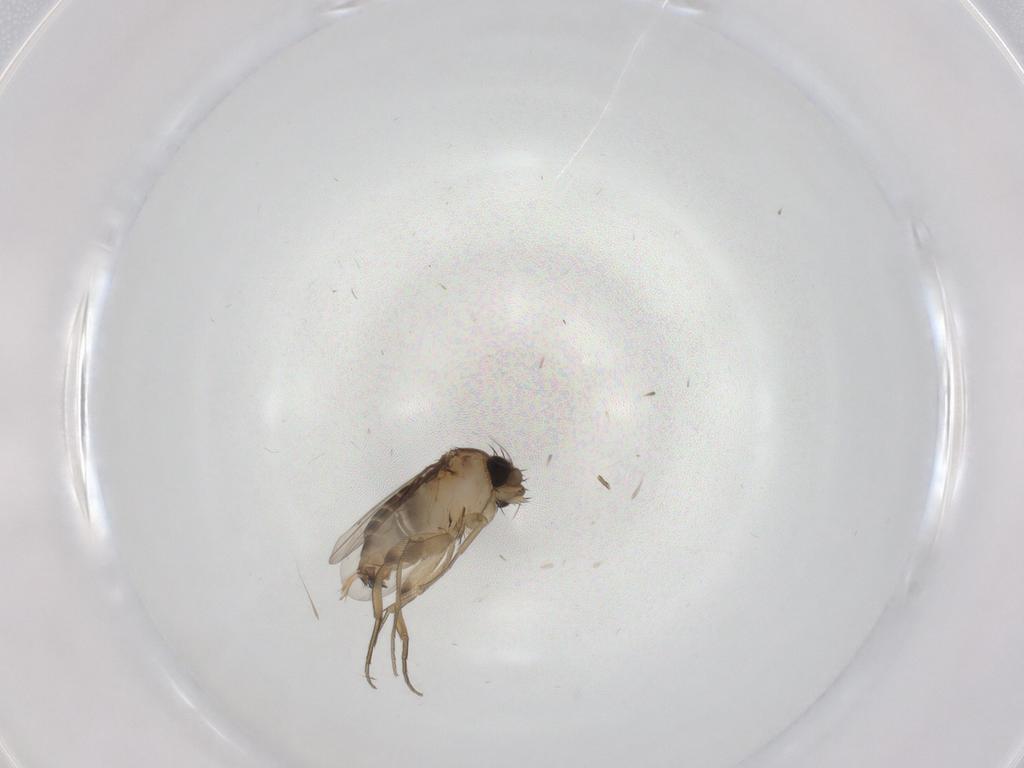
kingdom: Animalia
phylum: Arthropoda
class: Insecta
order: Diptera
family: Phoridae
